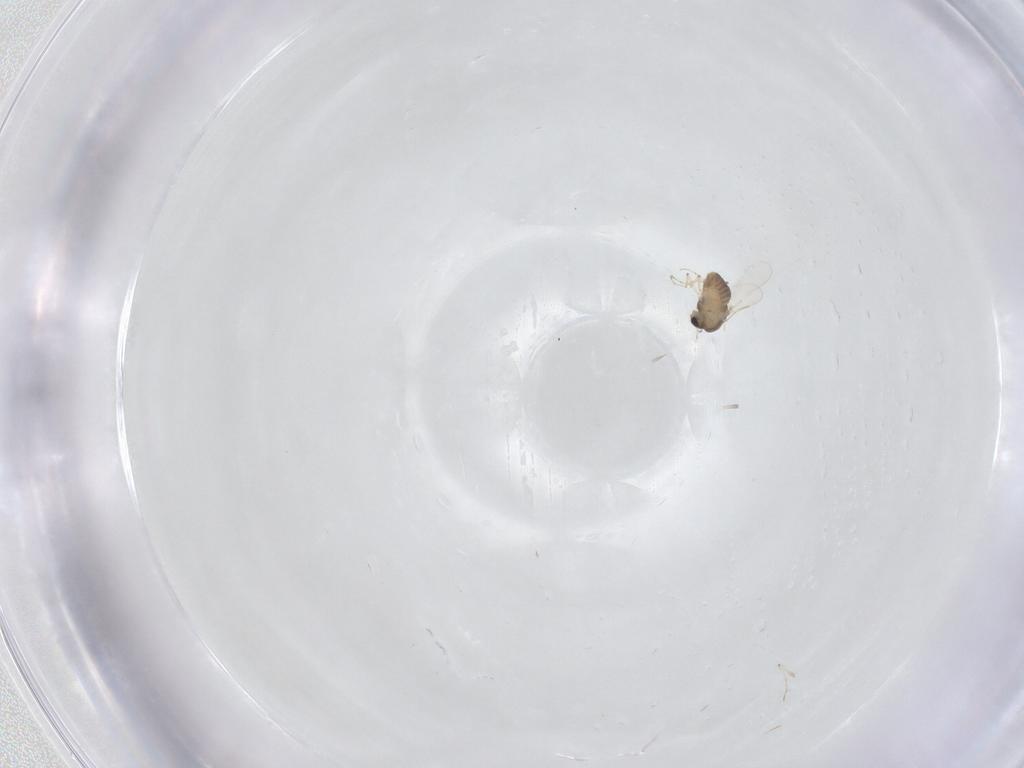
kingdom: Animalia
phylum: Arthropoda
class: Insecta
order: Diptera
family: Chironomidae
